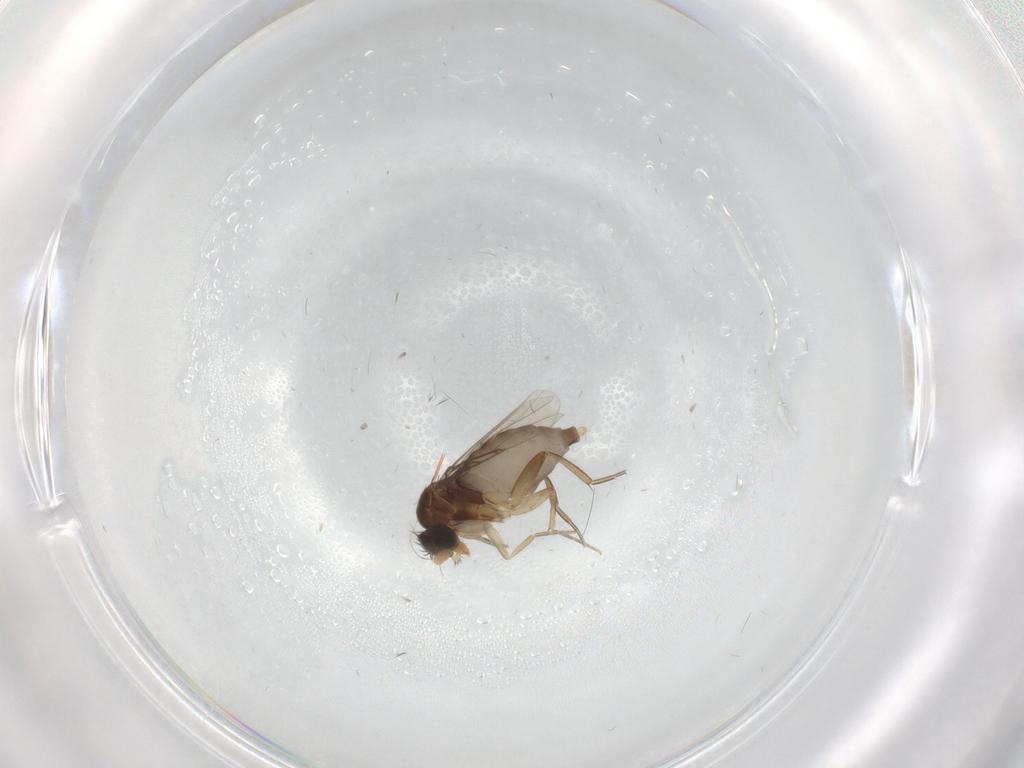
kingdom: Animalia
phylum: Arthropoda
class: Insecta
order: Diptera
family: Phoridae
